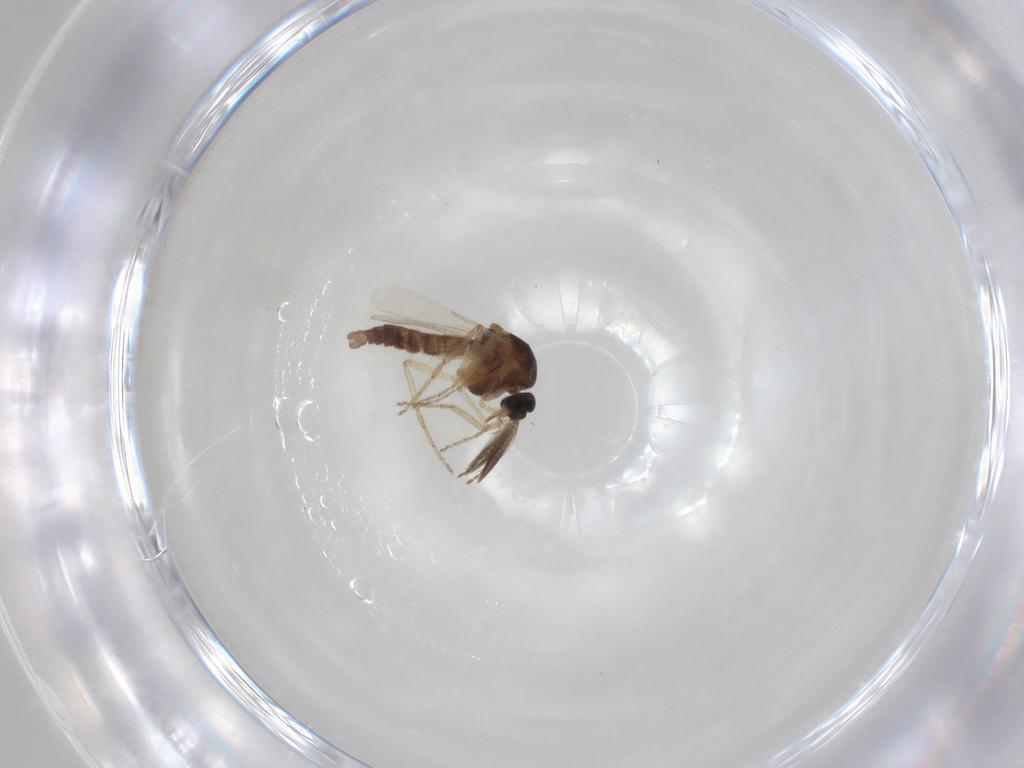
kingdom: Animalia
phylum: Arthropoda
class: Insecta
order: Diptera
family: Ceratopogonidae
